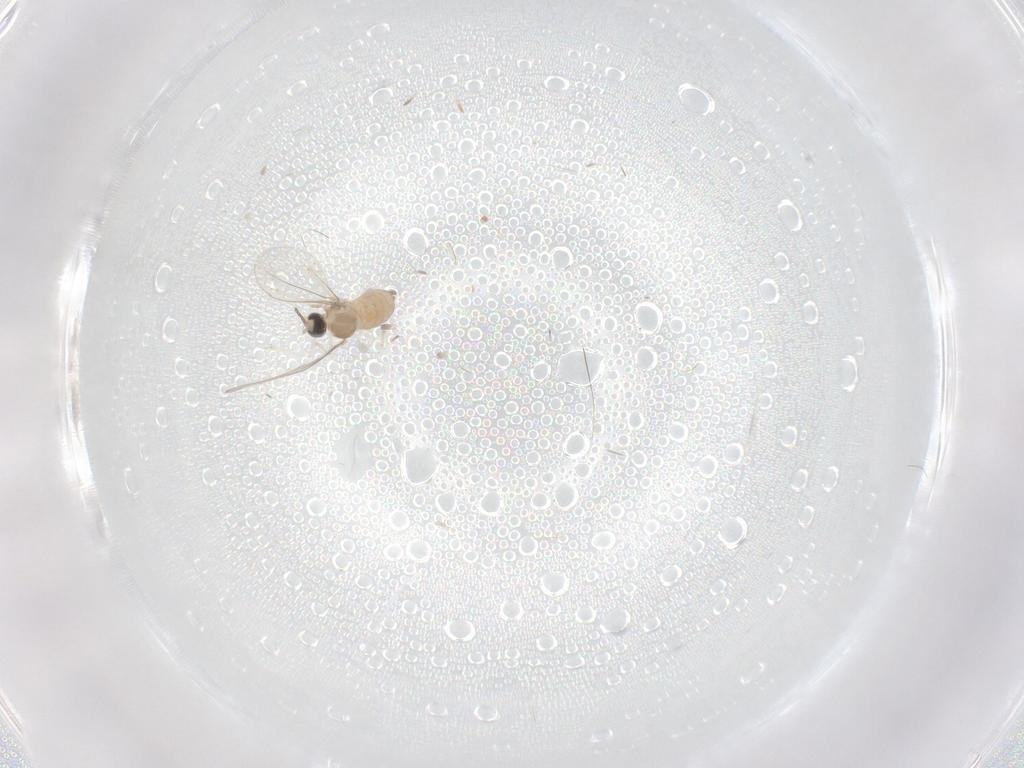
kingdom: Animalia
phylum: Arthropoda
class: Insecta
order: Diptera
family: Cecidomyiidae
